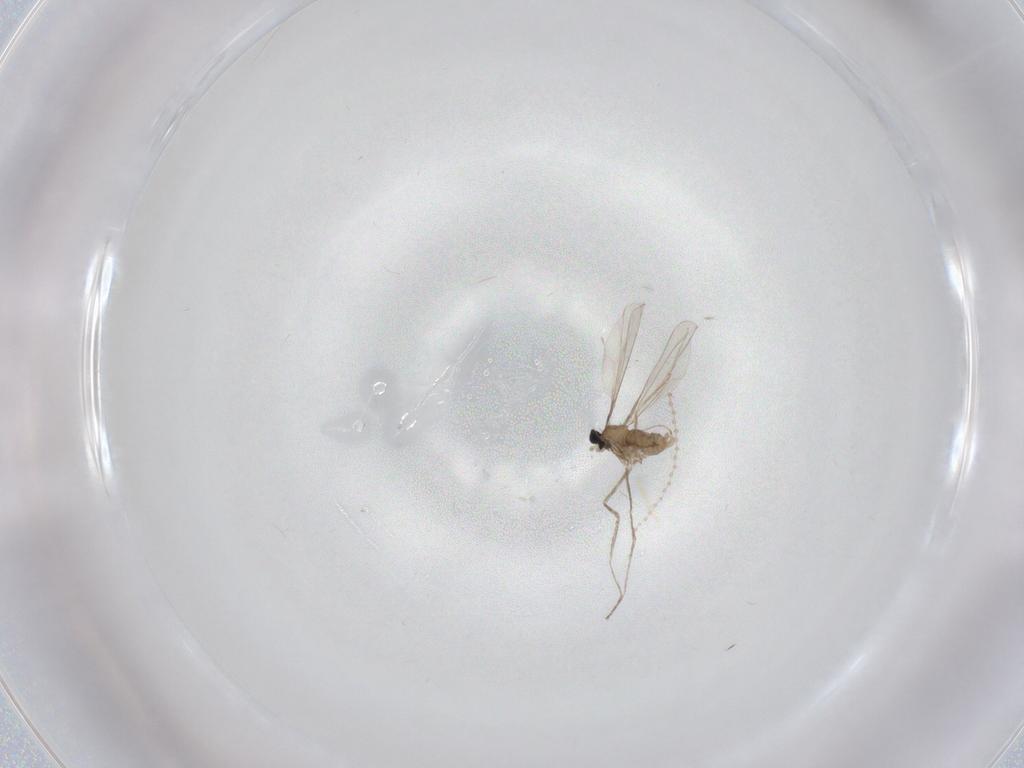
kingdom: Animalia
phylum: Arthropoda
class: Insecta
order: Diptera
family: Cecidomyiidae
